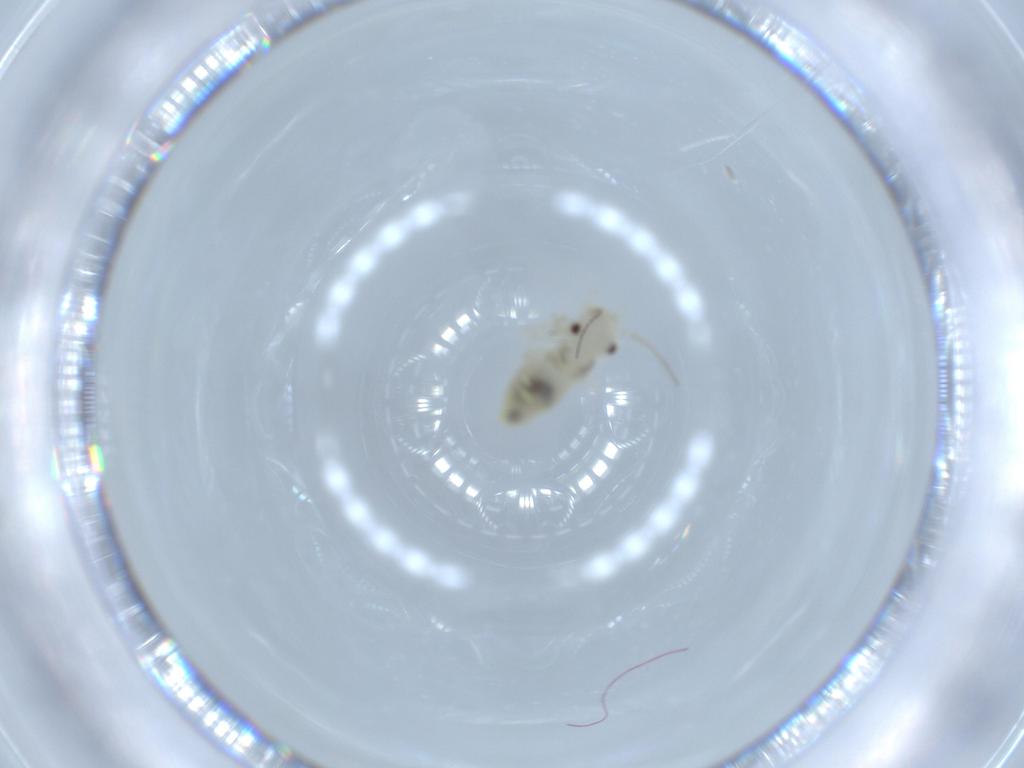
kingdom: Animalia
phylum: Arthropoda
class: Insecta
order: Psocodea
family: Caeciliusidae
